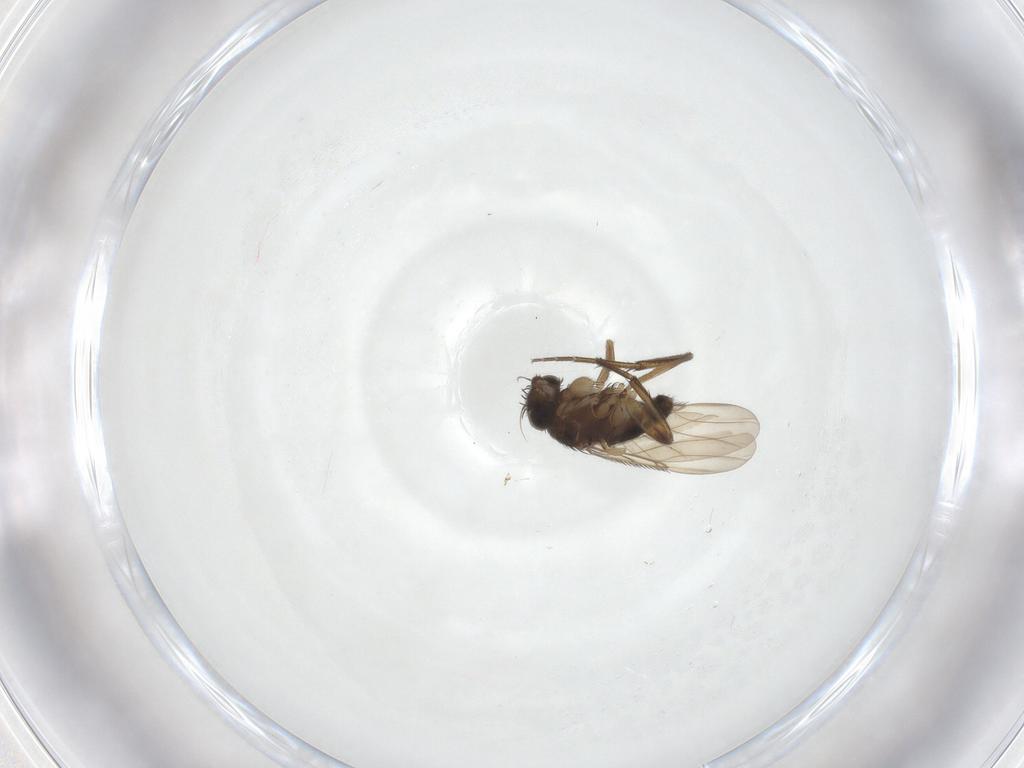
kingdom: Animalia
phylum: Arthropoda
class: Insecta
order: Diptera
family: Phoridae
